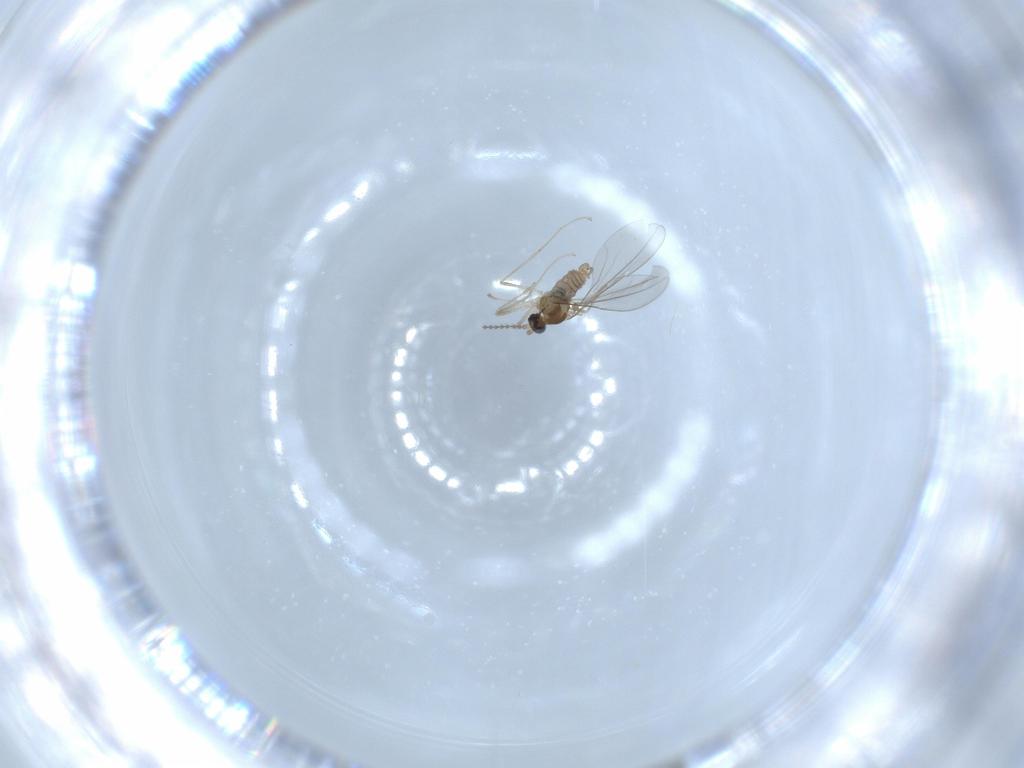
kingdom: Animalia
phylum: Arthropoda
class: Insecta
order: Diptera
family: Cecidomyiidae
